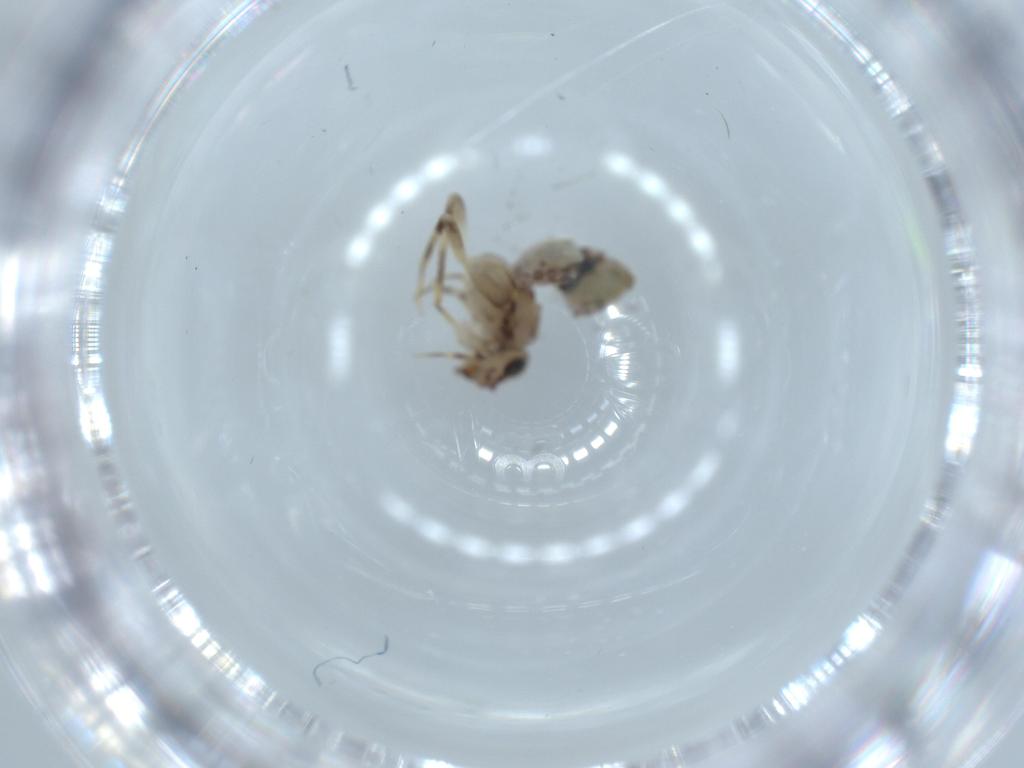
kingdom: Animalia
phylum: Arthropoda
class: Insecta
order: Psocodea
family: Lepidopsocidae
